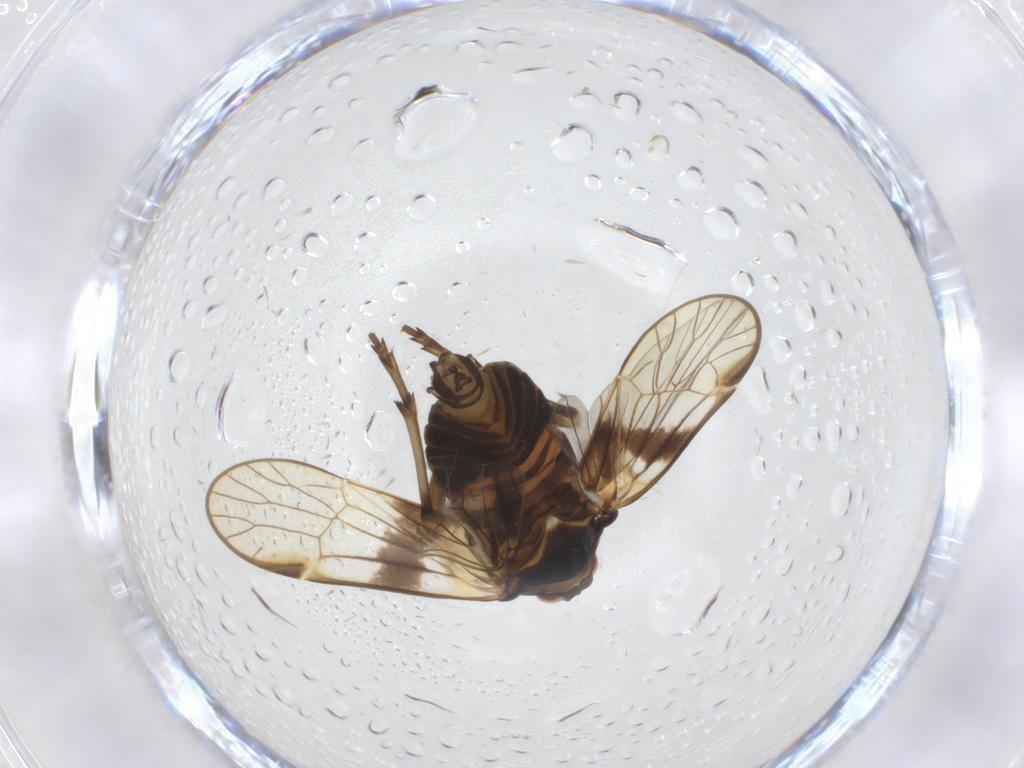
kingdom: Animalia
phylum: Arthropoda
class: Insecta
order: Hemiptera
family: Kinnaridae
